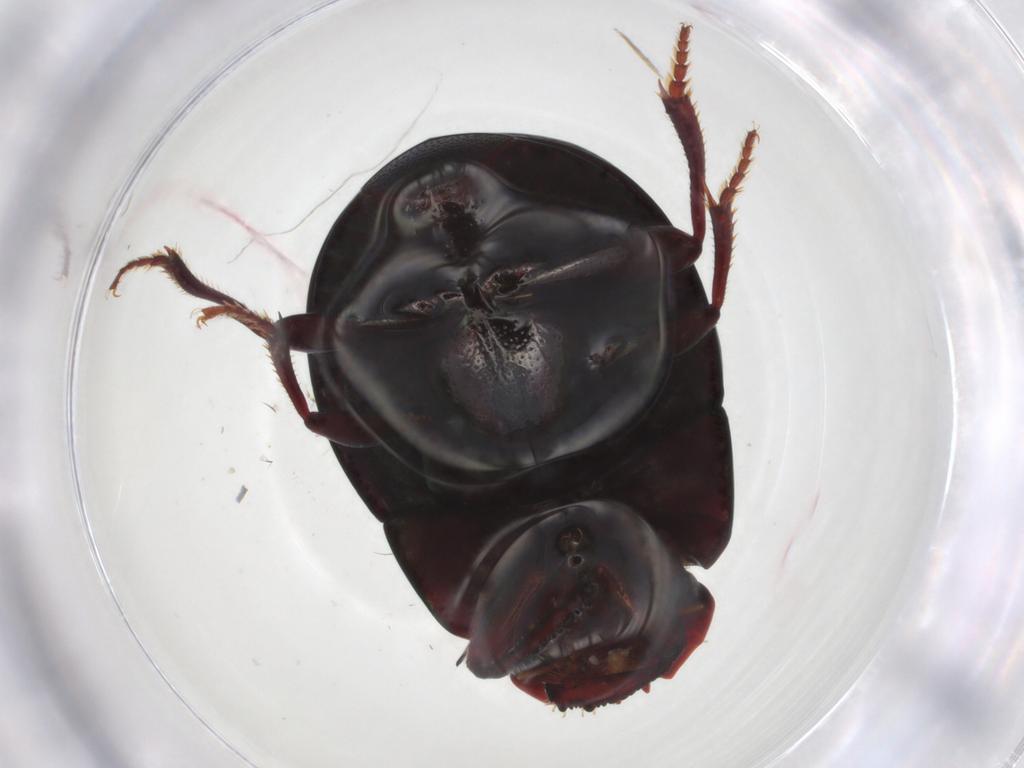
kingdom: Animalia
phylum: Arthropoda
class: Insecta
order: Coleoptera
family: Scarabaeidae
